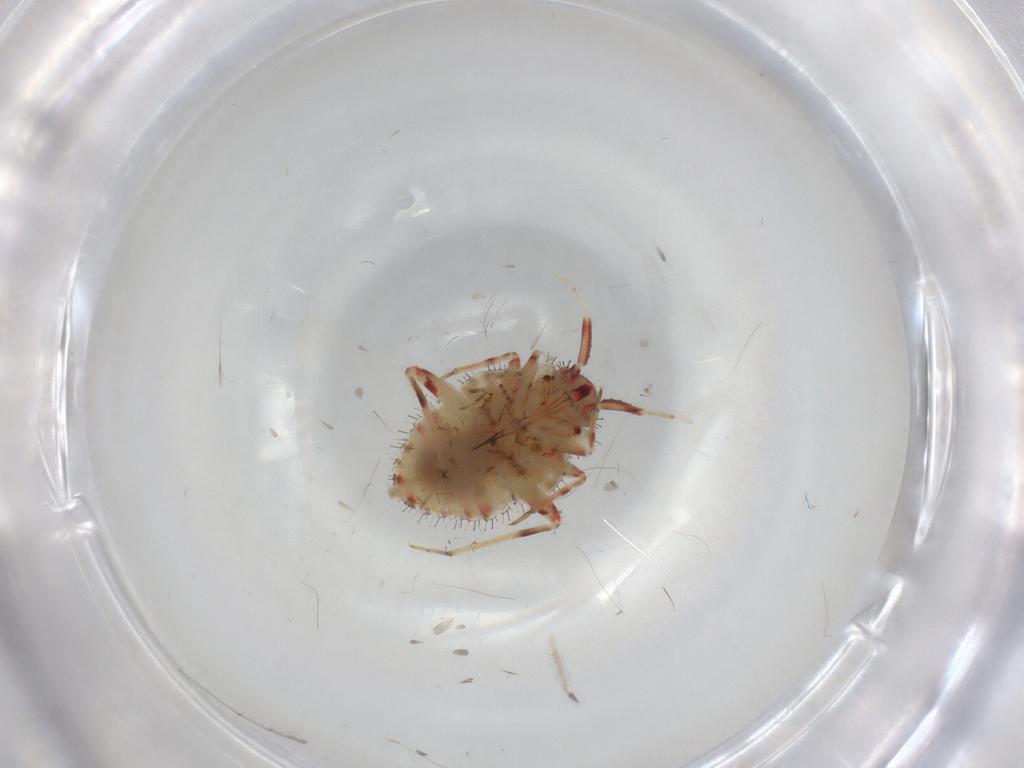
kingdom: Animalia
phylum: Arthropoda
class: Insecta
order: Hemiptera
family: Miridae
